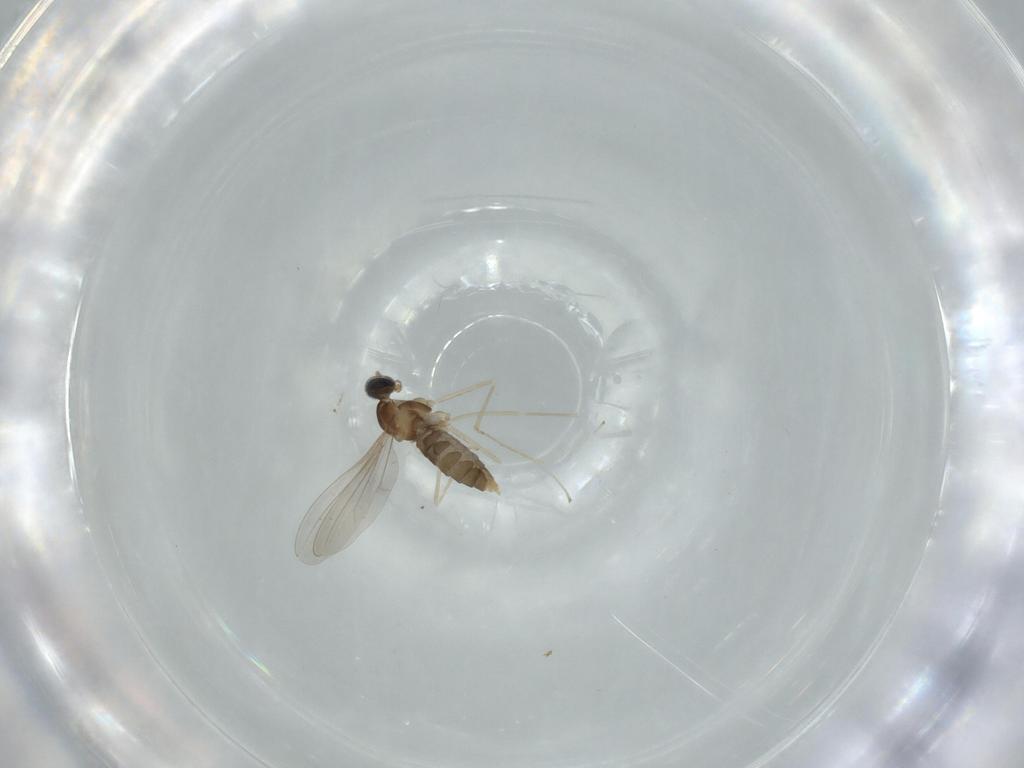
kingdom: Animalia
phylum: Arthropoda
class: Insecta
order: Diptera
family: Cecidomyiidae
